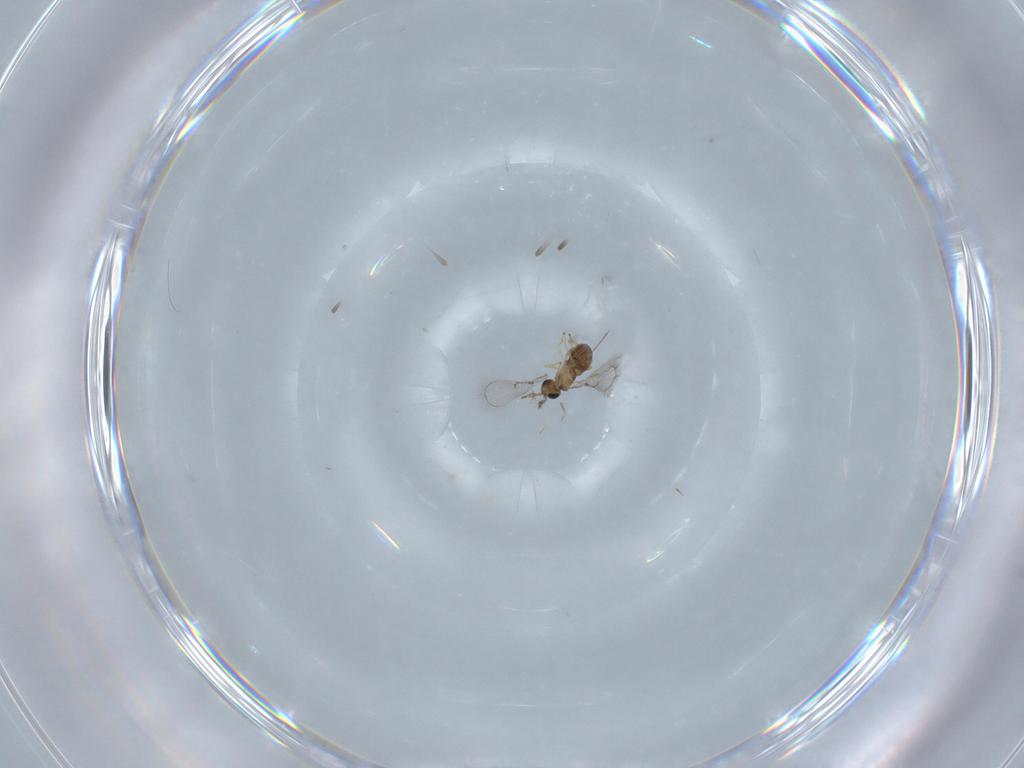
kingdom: Animalia
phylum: Arthropoda
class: Insecta
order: Hymenoptera
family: Trichogrammatidae
